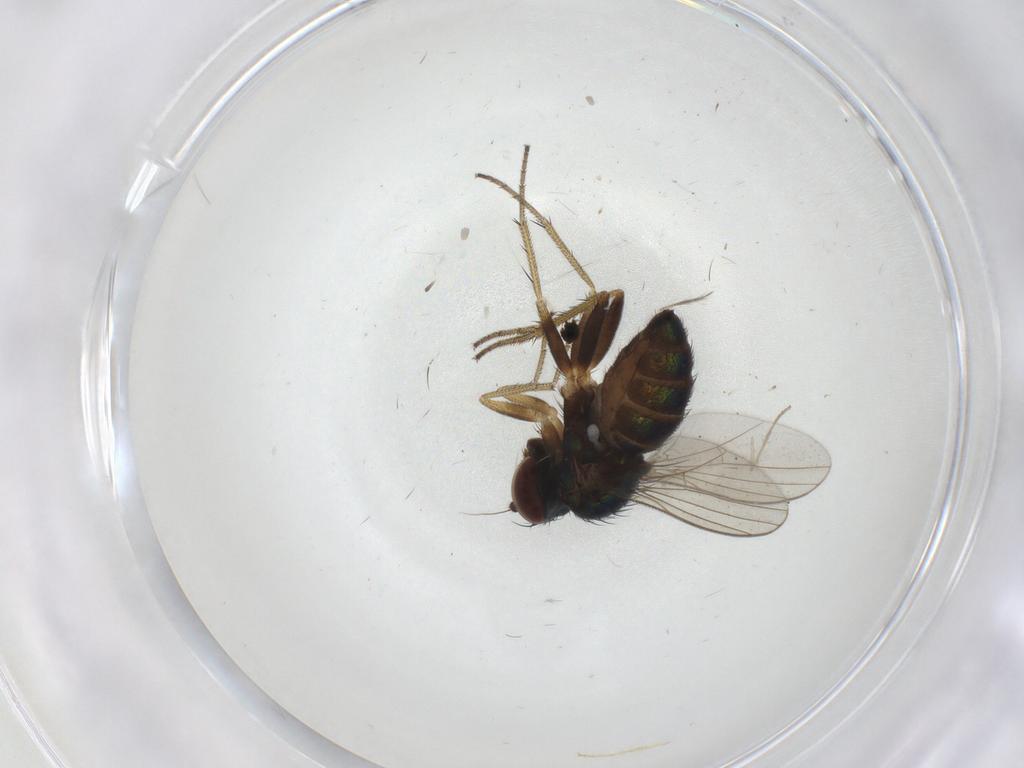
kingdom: Animalia
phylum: Arthropoda
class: Insecta
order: Diptera
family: Dolichopodidae
